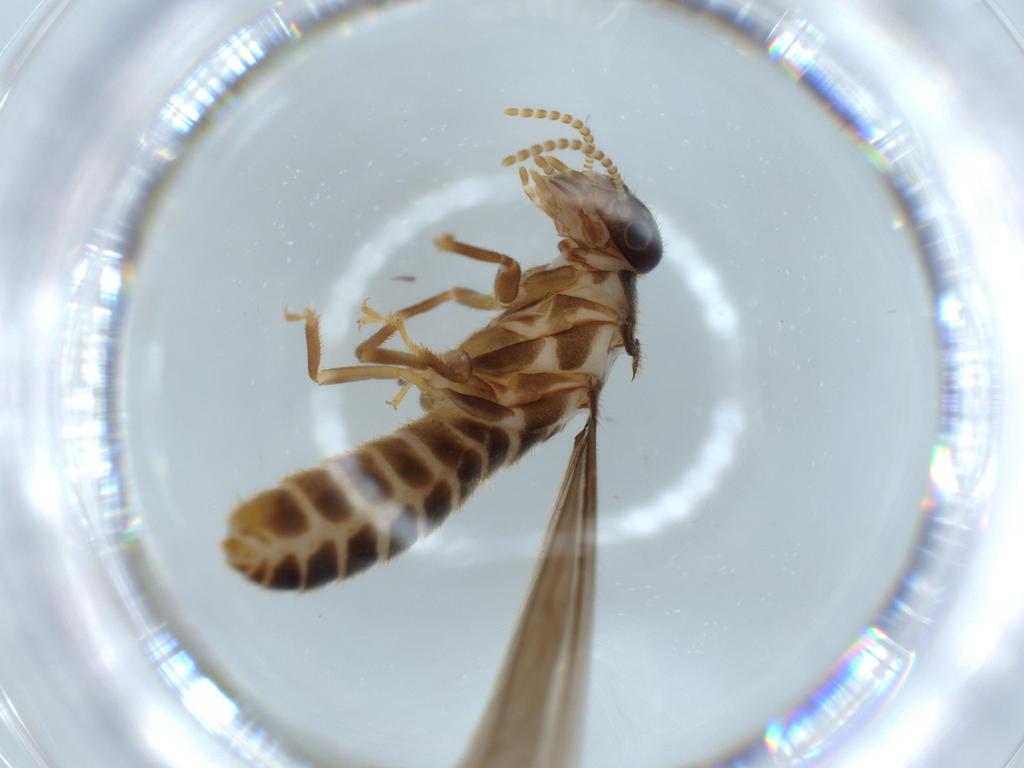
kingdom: Animalia
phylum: Arthropoda
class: Insecta
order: Blattodea
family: Termitidae
